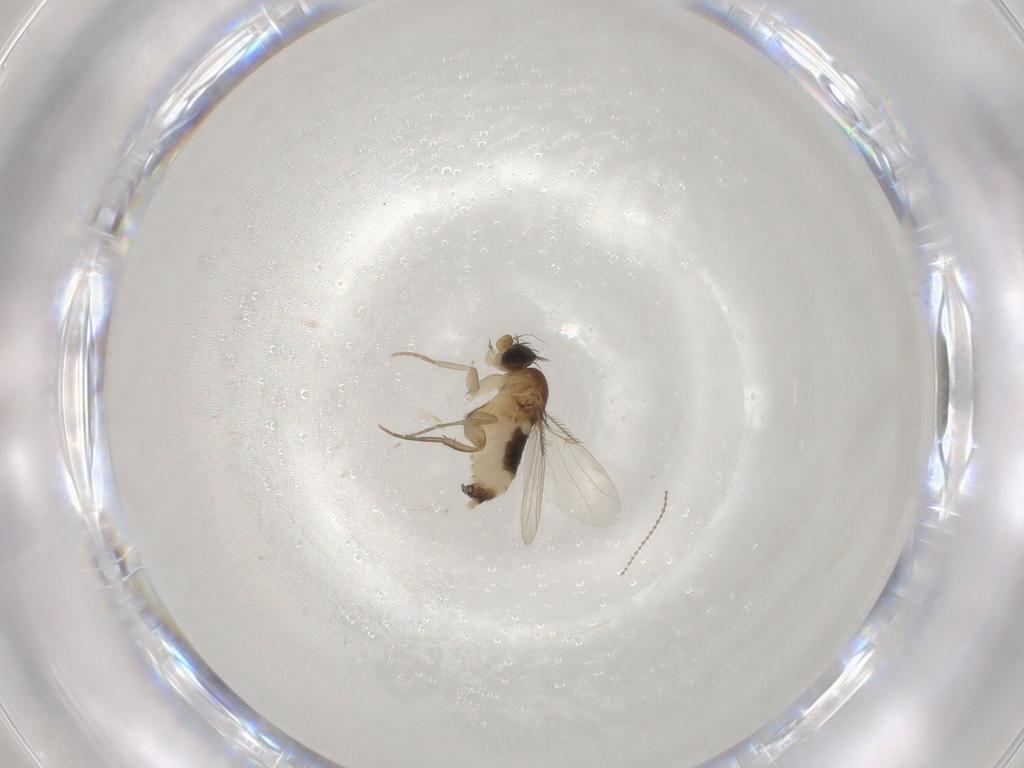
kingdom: Animalia
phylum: Arthropoda
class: Insecta
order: Diptera
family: Phoridae
